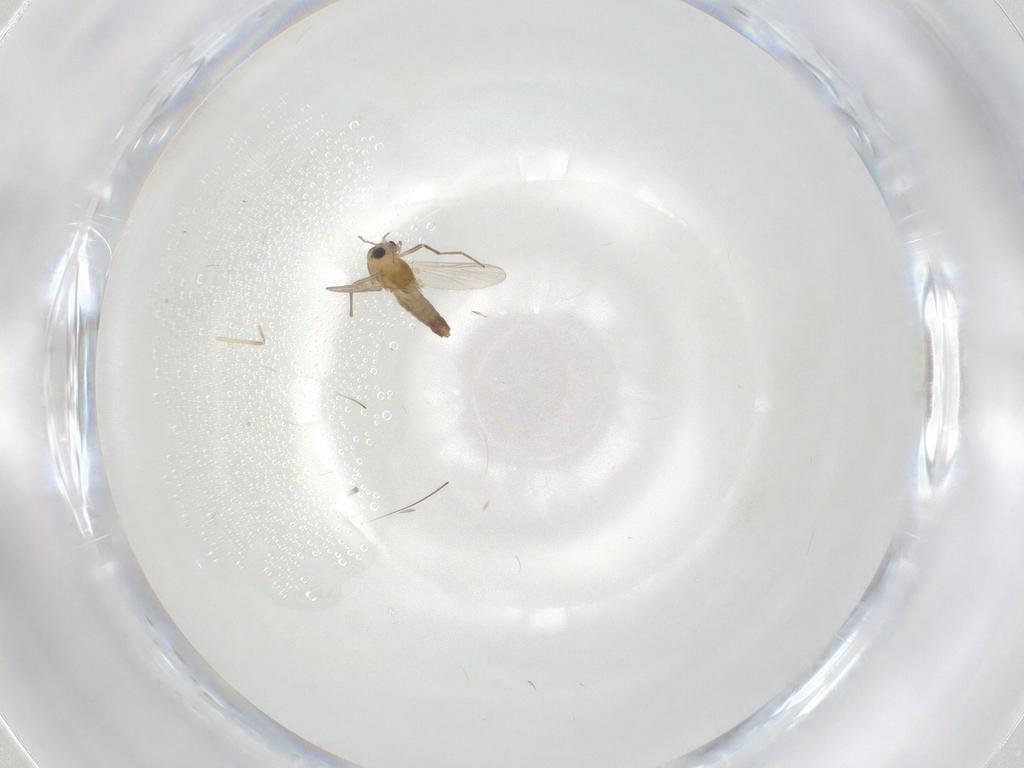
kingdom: Animalia
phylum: Arthropoda
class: Insecta
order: Diptera
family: Chironomidae
